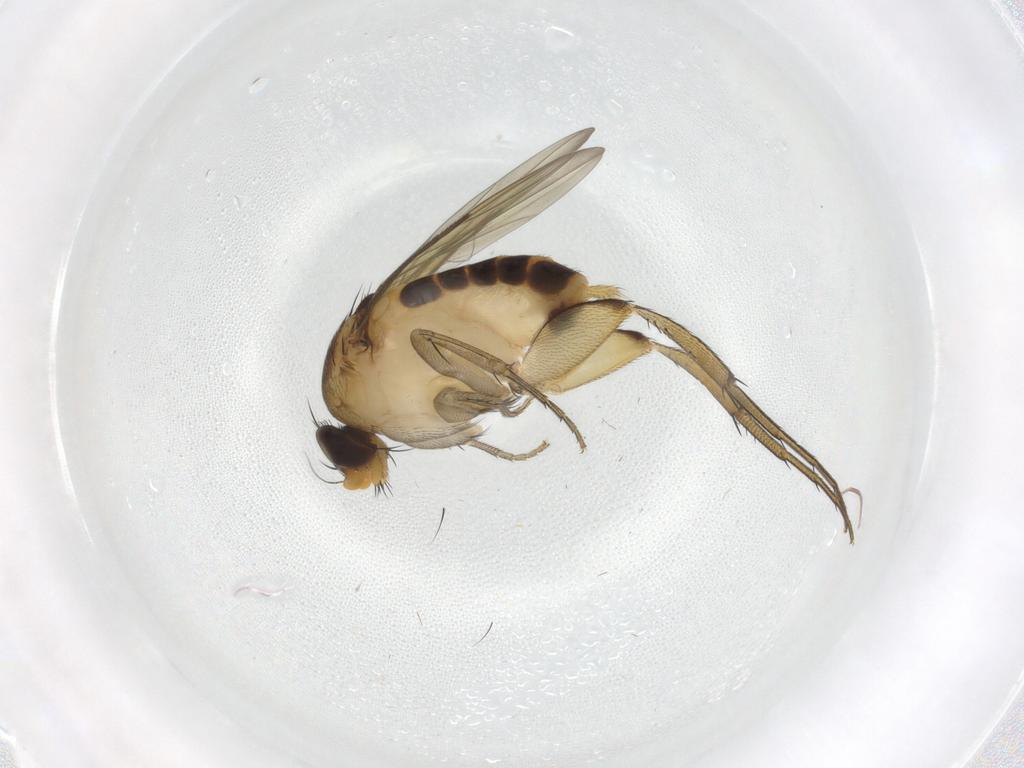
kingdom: Animalia
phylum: Arthropoda
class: Insecta
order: Diptera
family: Phoridae
